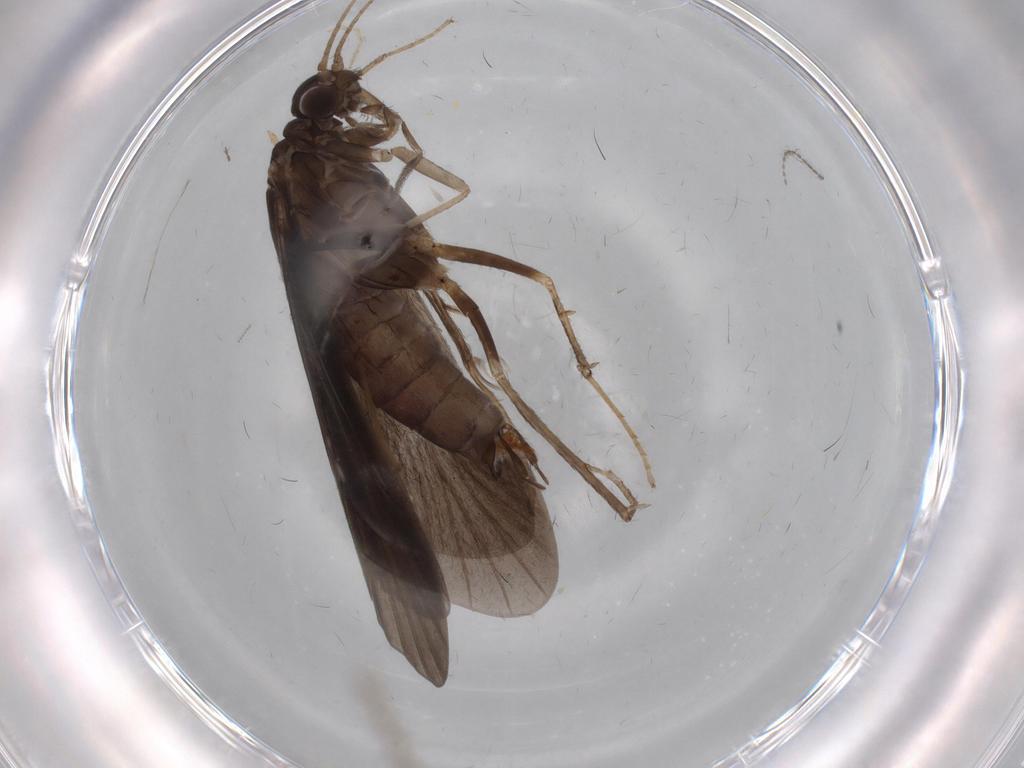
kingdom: Animalia
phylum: Arthropoda
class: Insecta
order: Trichoptera
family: Hydropsychidae
